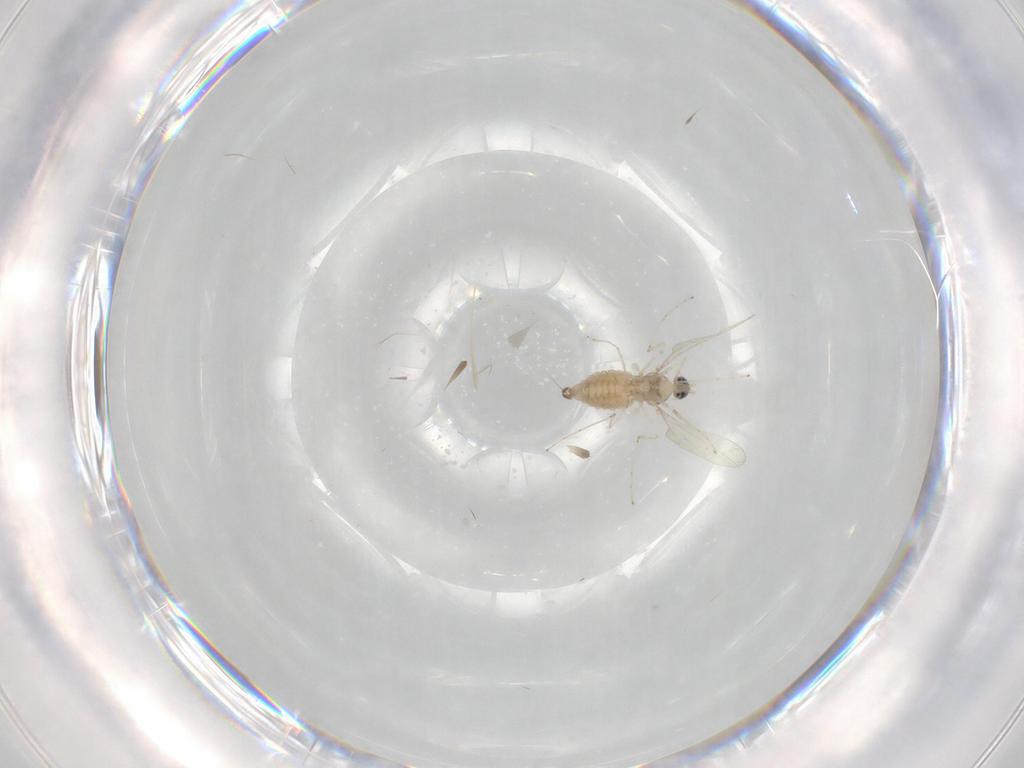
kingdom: Animalia
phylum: Arthropoda
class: Insecta
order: Diptera
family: Cecidomyiidae
